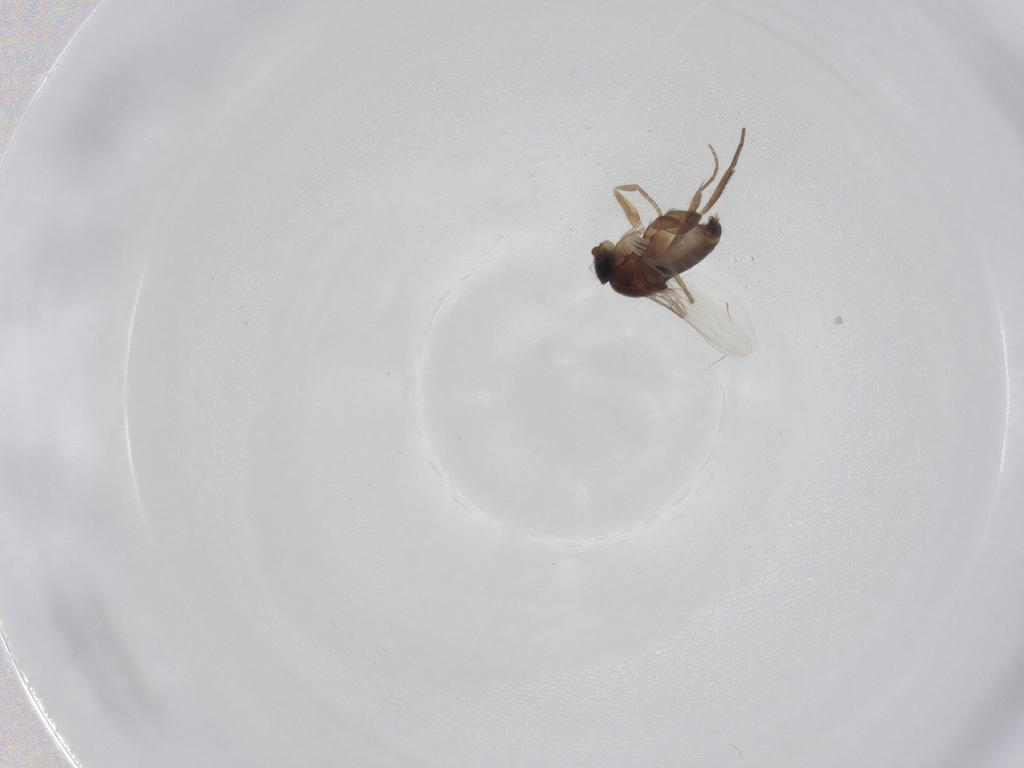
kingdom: Animalia
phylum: Arthropoda
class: Insecta
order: Diptera
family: Phoridae
